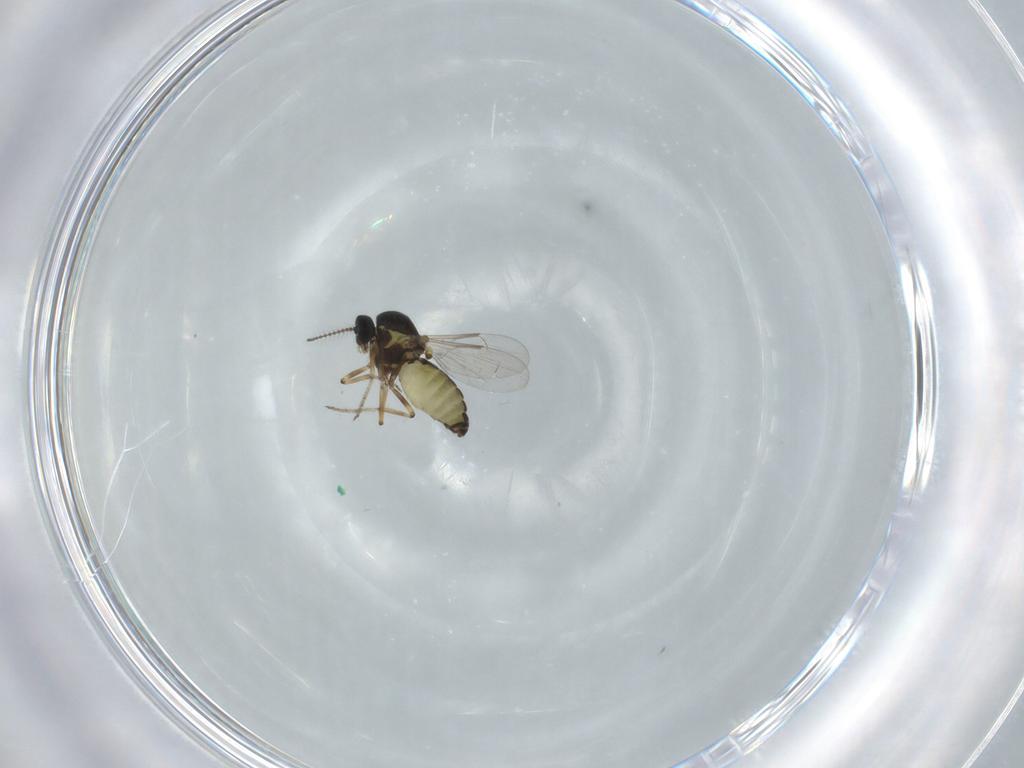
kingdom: Animalia
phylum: Arthropoda
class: Insecta
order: Diptera
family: Ceratopogonidae
